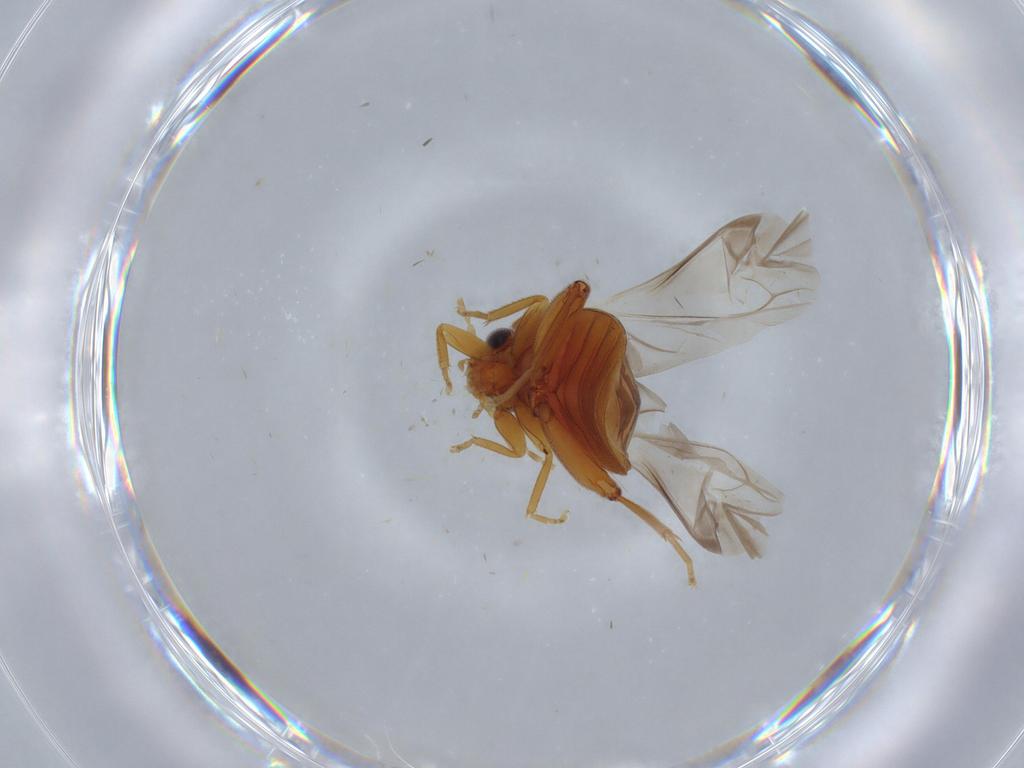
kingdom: Animalia
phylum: Arthropoda
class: Insecta
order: Coleoptera
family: Scirtidae
